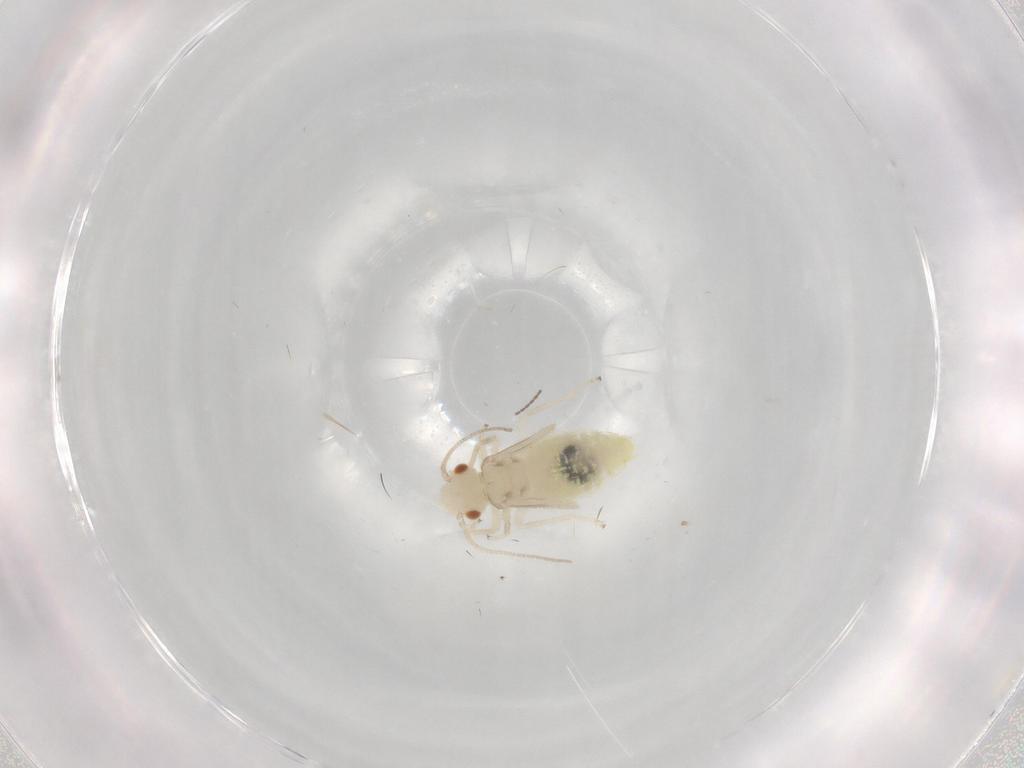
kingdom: Animalia
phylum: Arthropoda
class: Insecta
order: Psocodea
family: Caeciliusidae
